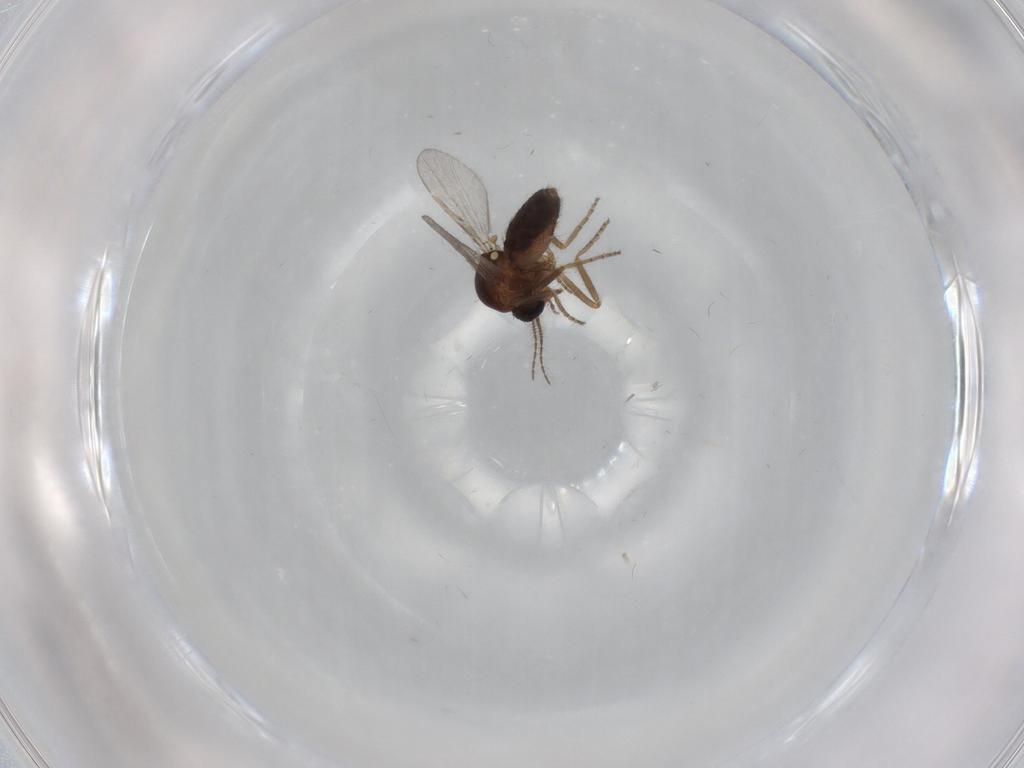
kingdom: Animalia
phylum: Arthropoda
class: Insecta
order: Diptera
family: Ceratopogonidae
